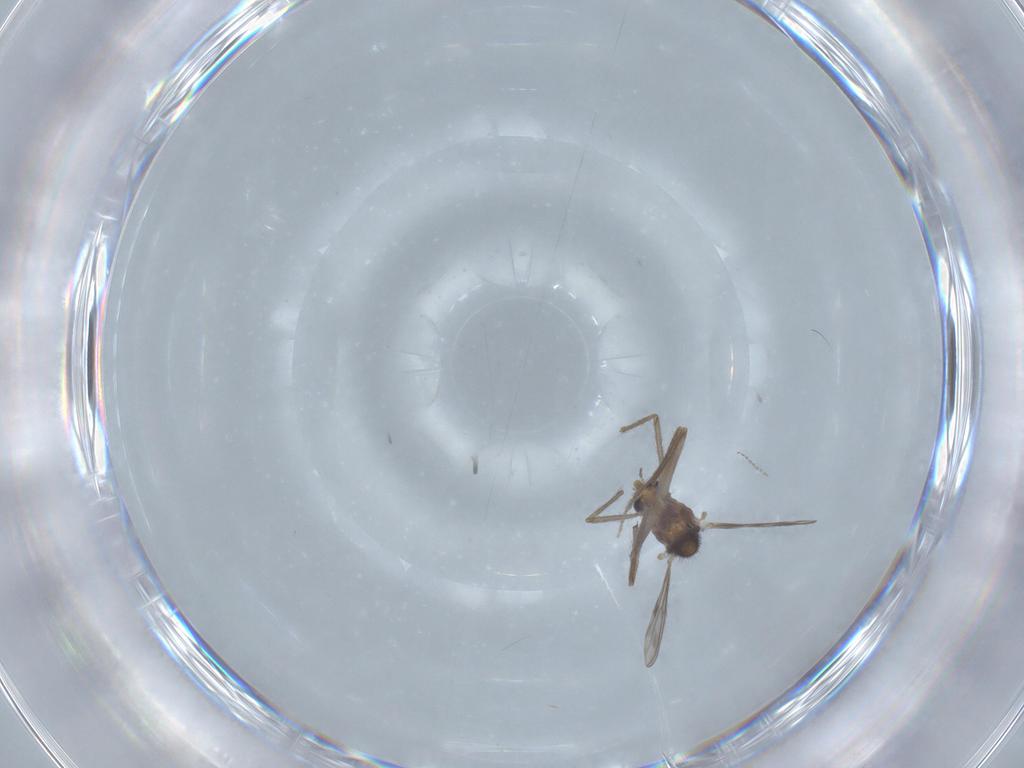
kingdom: Animalia
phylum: Arthropoda
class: Insecta
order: Diptera
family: Chironomidae
